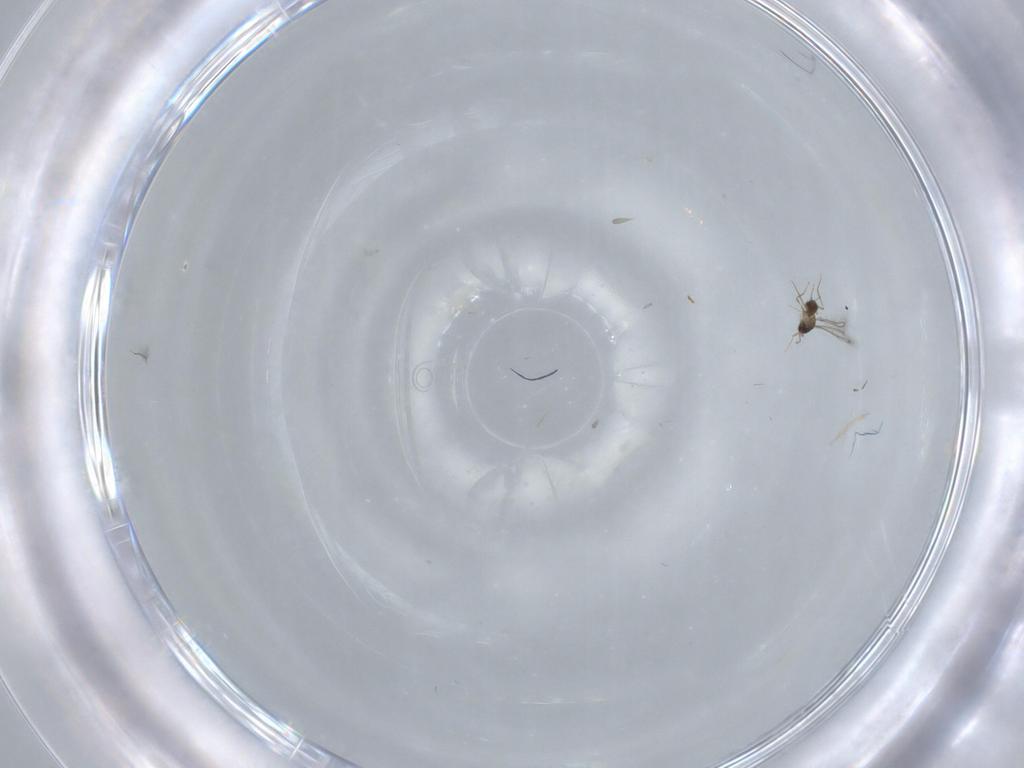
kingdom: Animalia
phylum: Arthropoda
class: Insecta
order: Hymenoptera
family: Mymaridae
